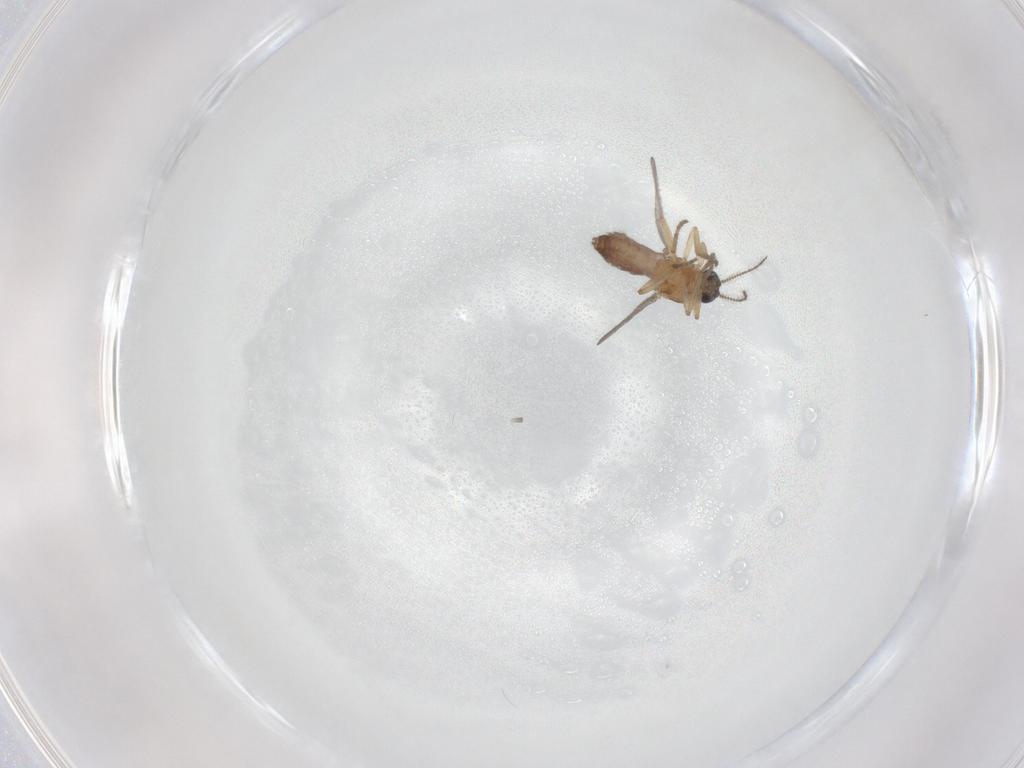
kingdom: Animalia
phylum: Arthropoda
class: Insecta
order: Diptera
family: Ceratopogonidae
